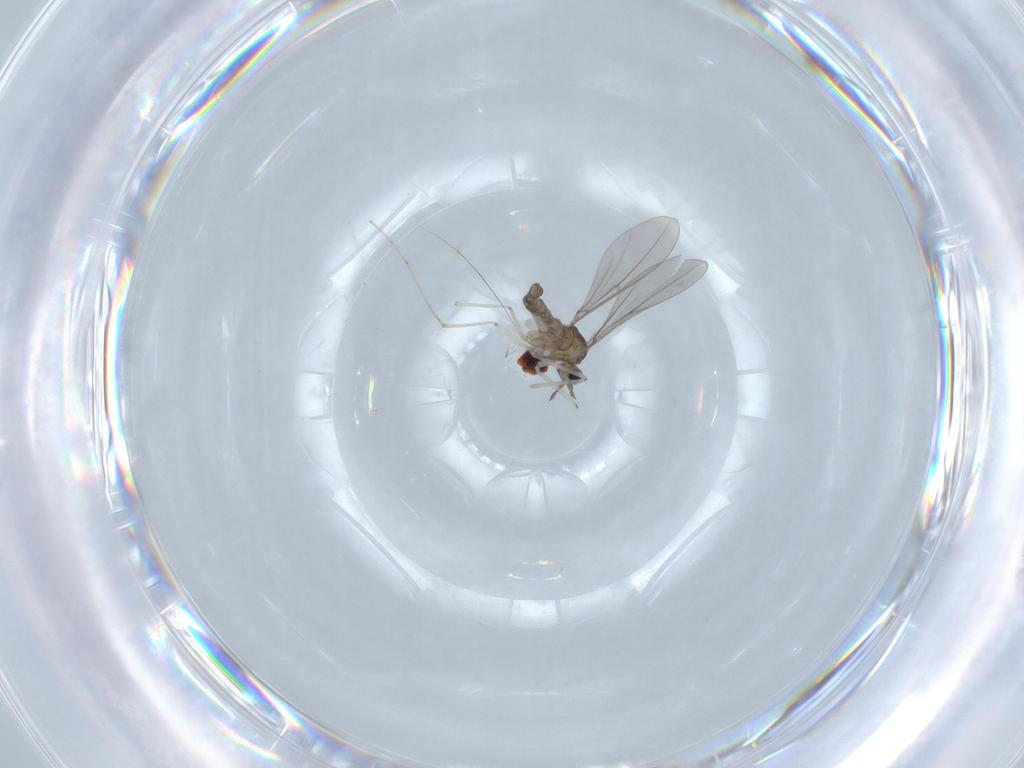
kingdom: Animalia
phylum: Arthropoda
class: Insecta
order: Diptera
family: Cecidomyiidae
